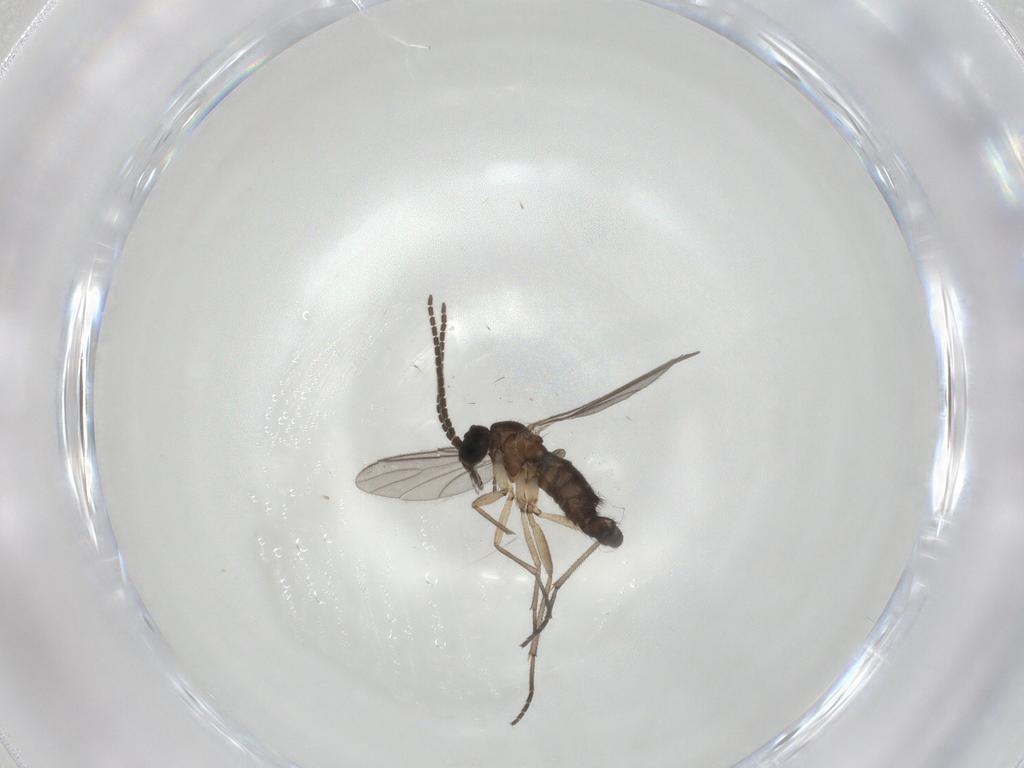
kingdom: Animalia
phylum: Arthropoda
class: Insecta
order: Diptera
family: Sciaridae
